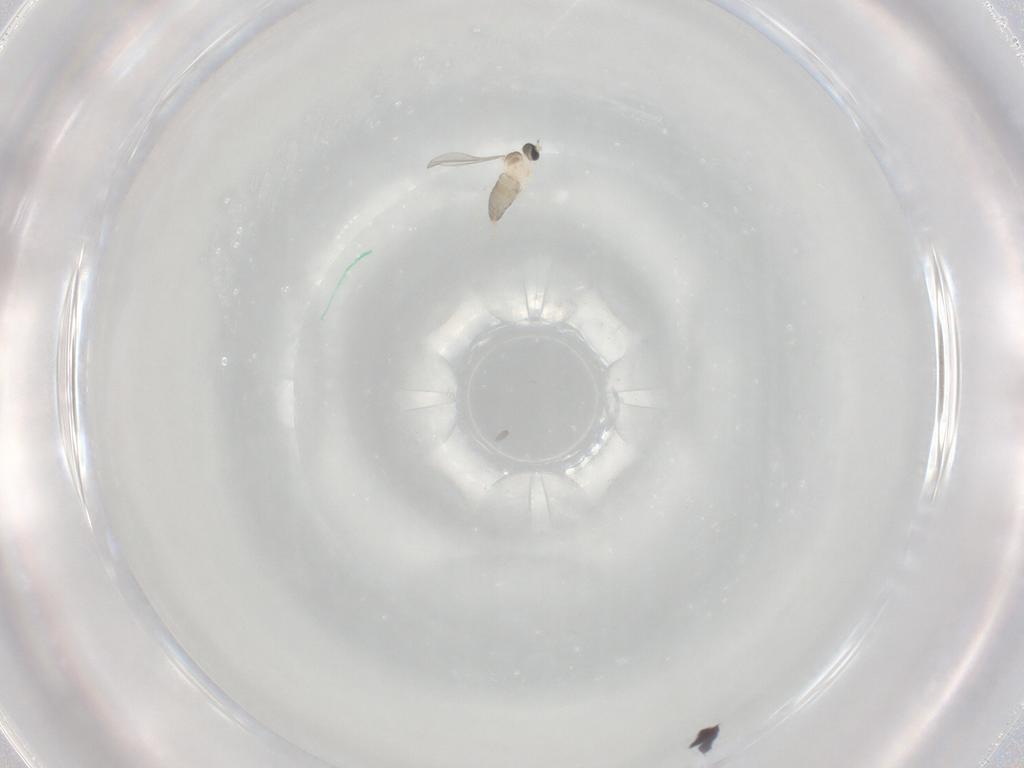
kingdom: Animalia
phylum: Arthropoda
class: Insecta
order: Diptera
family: Cecidomyiidae
